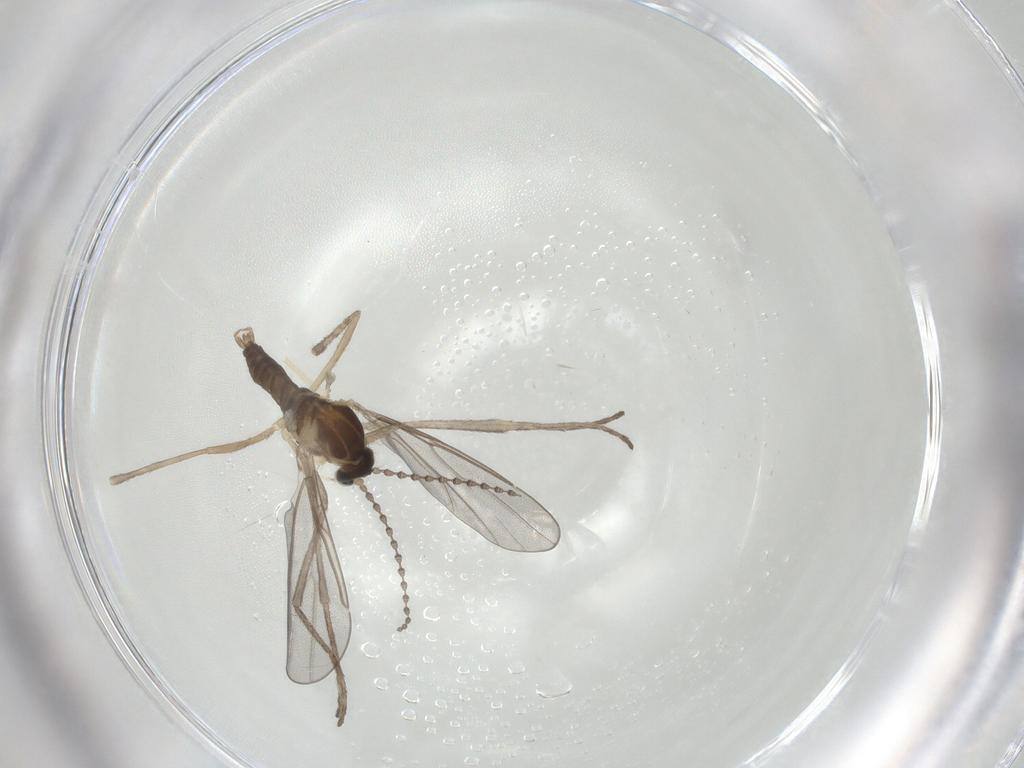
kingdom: Animalia
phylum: Arthropoda
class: Insecta
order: Diptera
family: Cecidomyiidae
